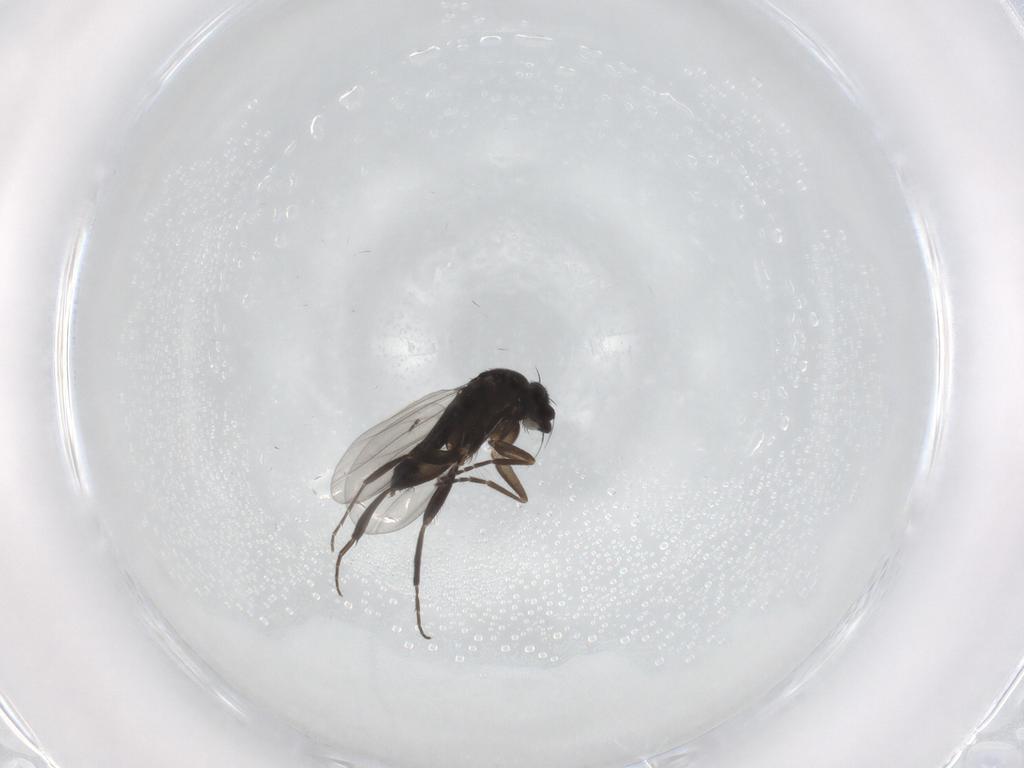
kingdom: Animalia
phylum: Arthropoda
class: Insecta
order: Diptera
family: Phoridae
